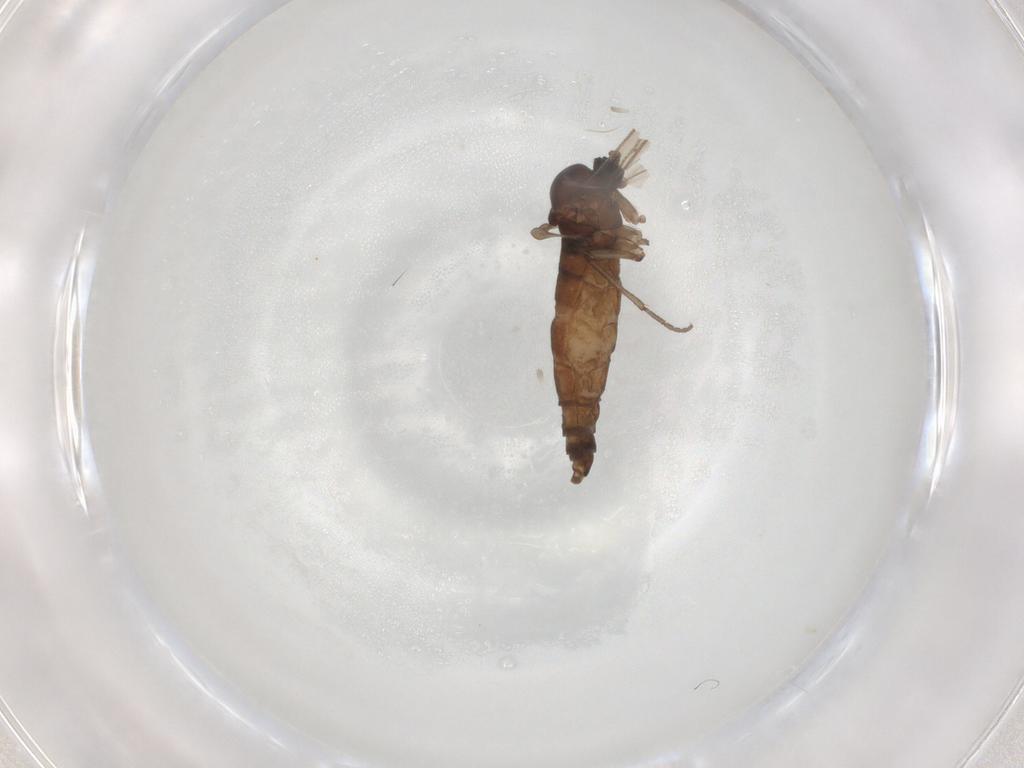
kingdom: Animalia
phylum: Arthropoda
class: Insecta
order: Diptera
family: Sciaridae
